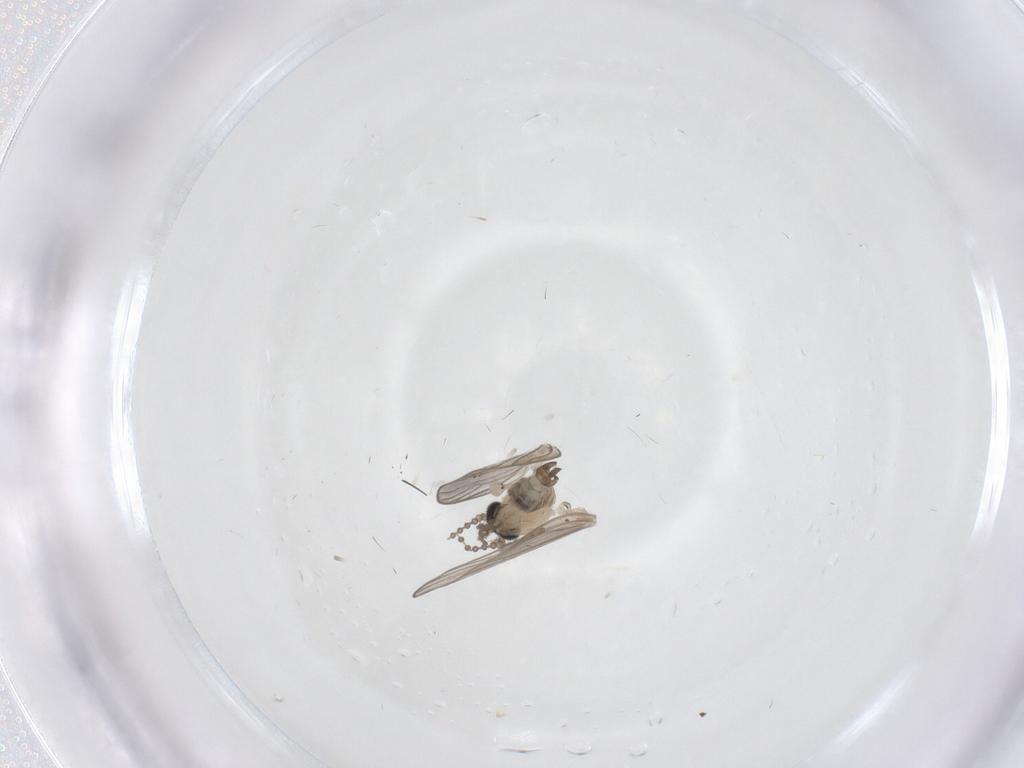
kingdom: Animalia
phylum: Arthropoda
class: Insecta
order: Diptera
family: Psychodidae
